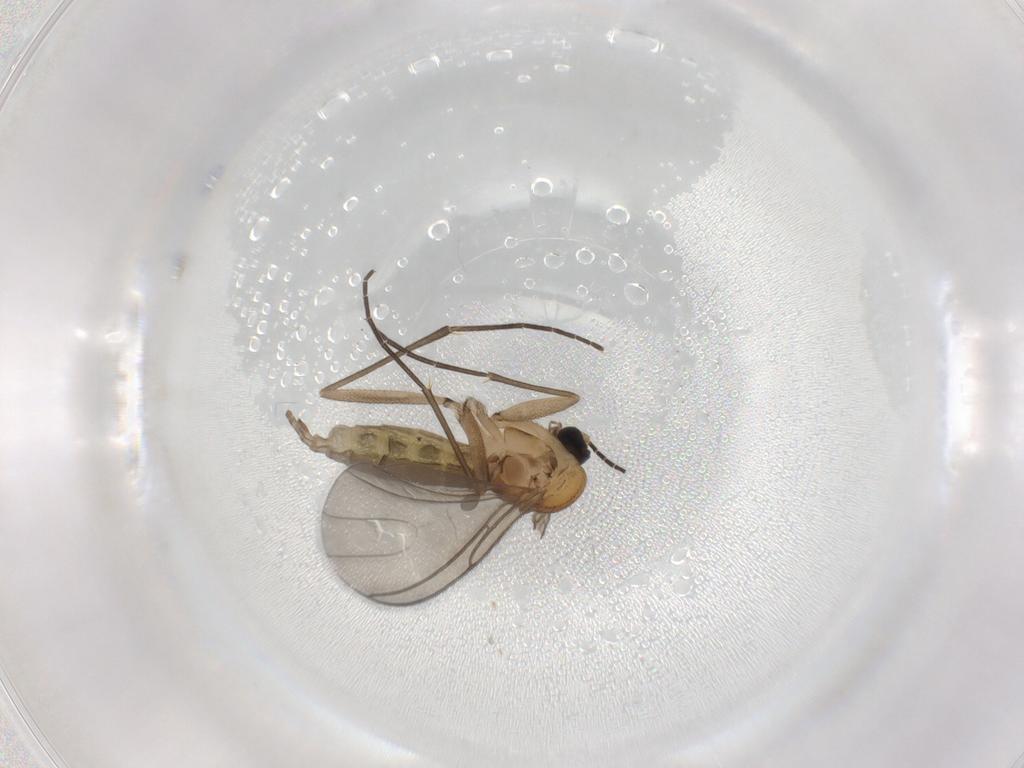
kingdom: Animalia
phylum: Arthropoda
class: Insecta
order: Diptera
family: Sciaridae
